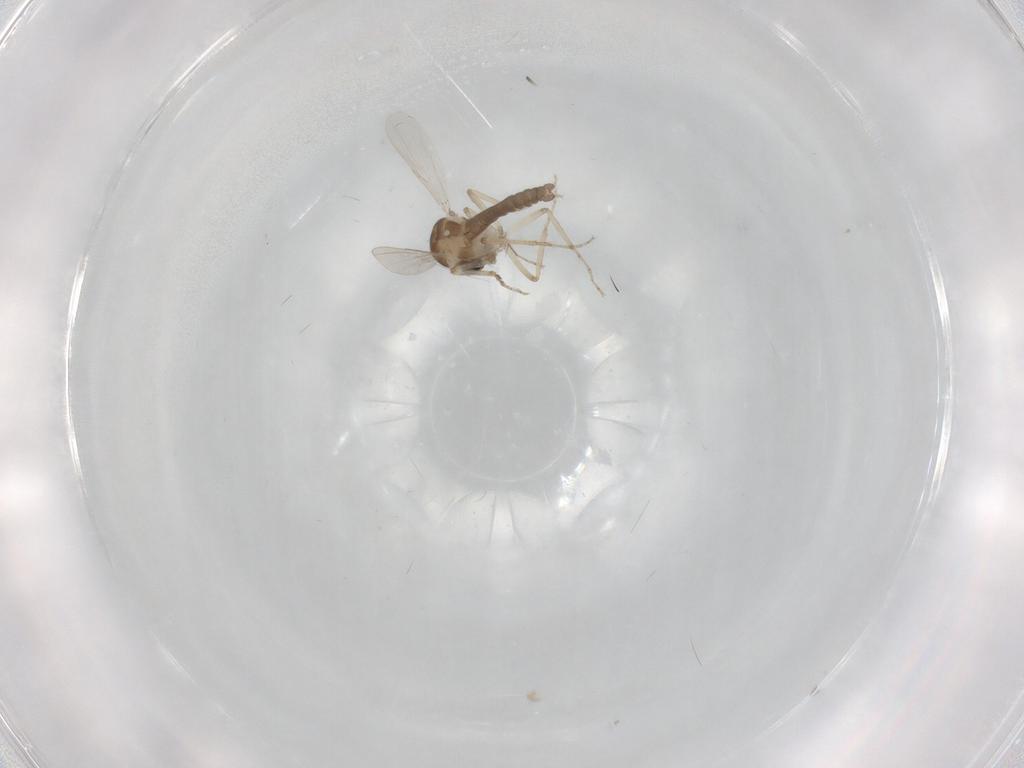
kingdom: Animalia
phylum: Arthropoda
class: Insecta
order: Diptera
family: Ceratopogonidae
